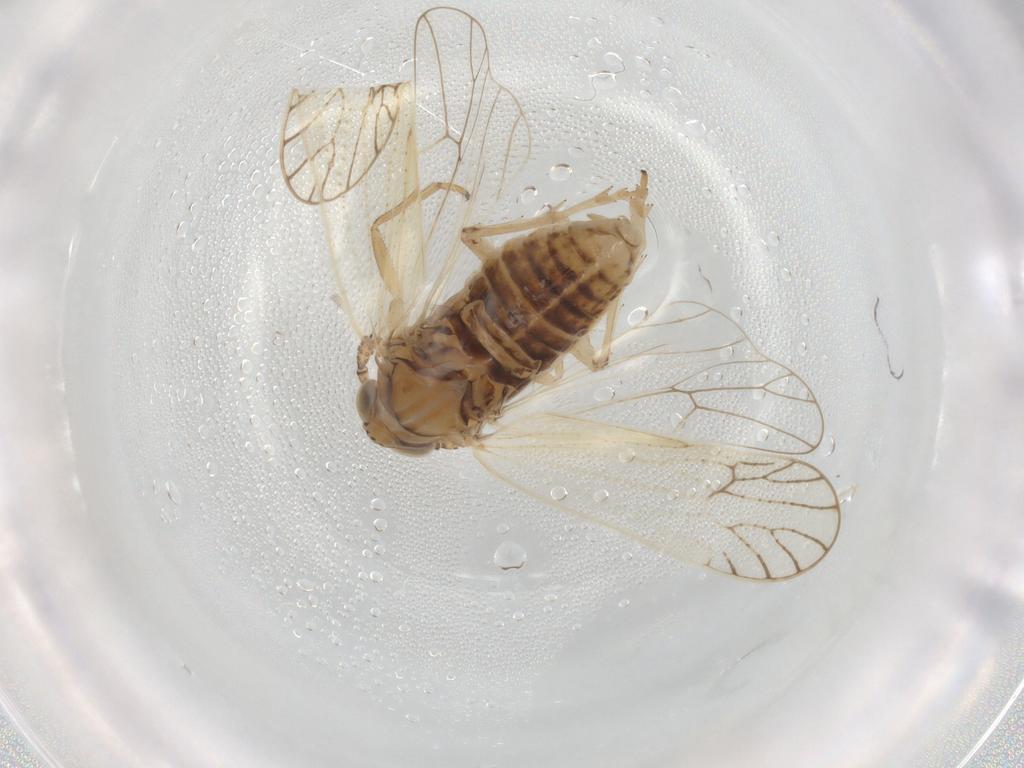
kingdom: Animalia
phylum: Arthropoda
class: Insecta
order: Hemiptera
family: Delphacidae
